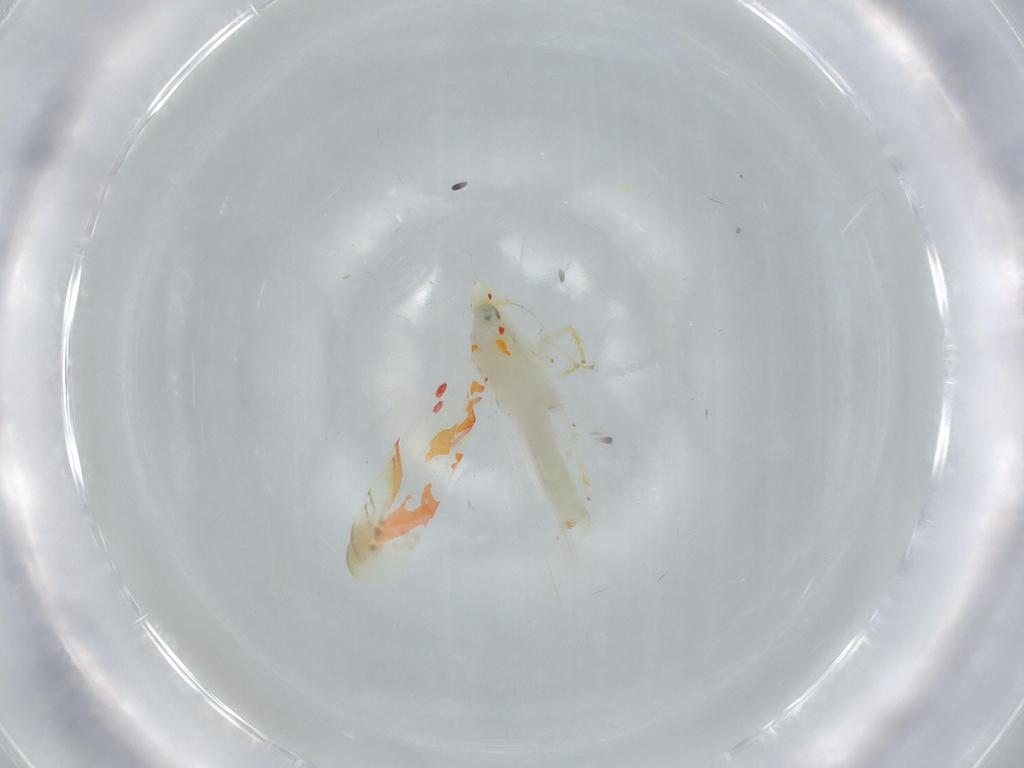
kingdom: Animalia
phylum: Arthropoda
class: Insecta
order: Hemiptera
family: Cicadellidae
